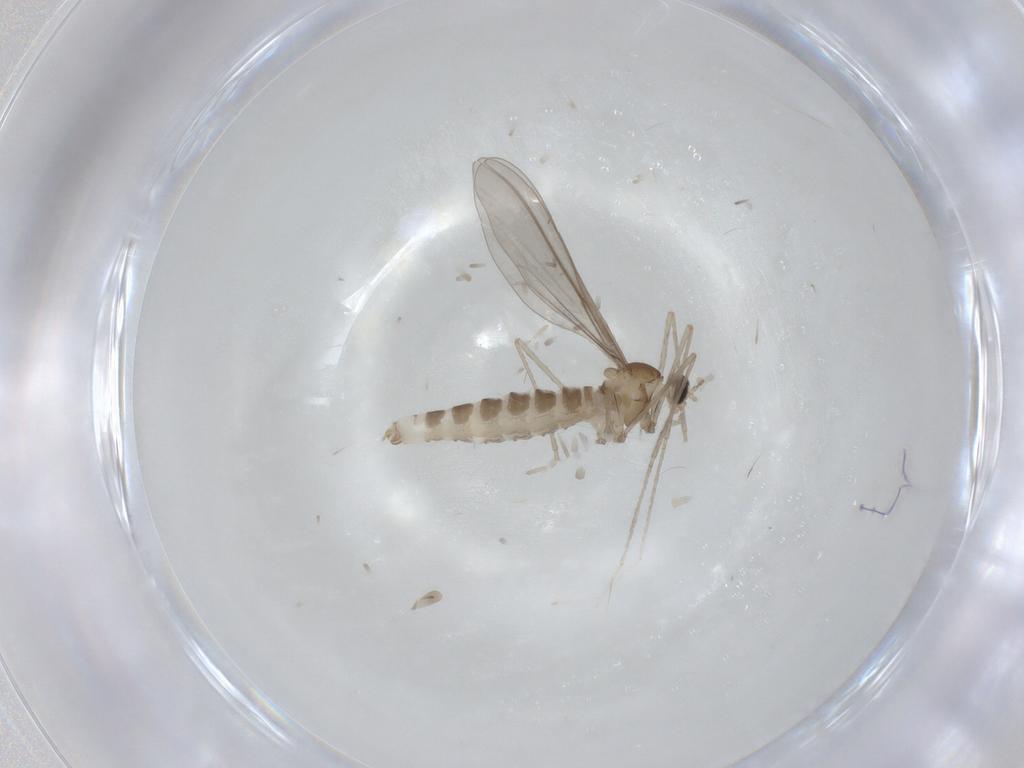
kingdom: Animalia
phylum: Arthropoda
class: Insecta
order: Diptera
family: Cecidomyiidae
